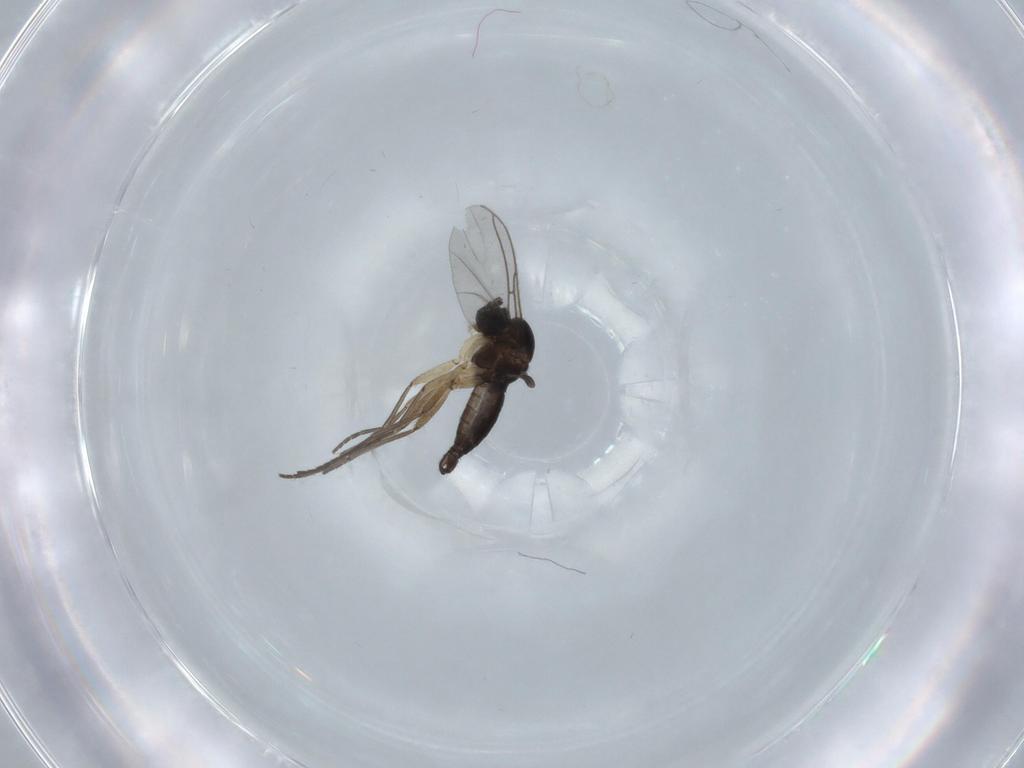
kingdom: Animalia
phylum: Arthropoda
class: Insecta
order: Diptera
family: Sciaridae
